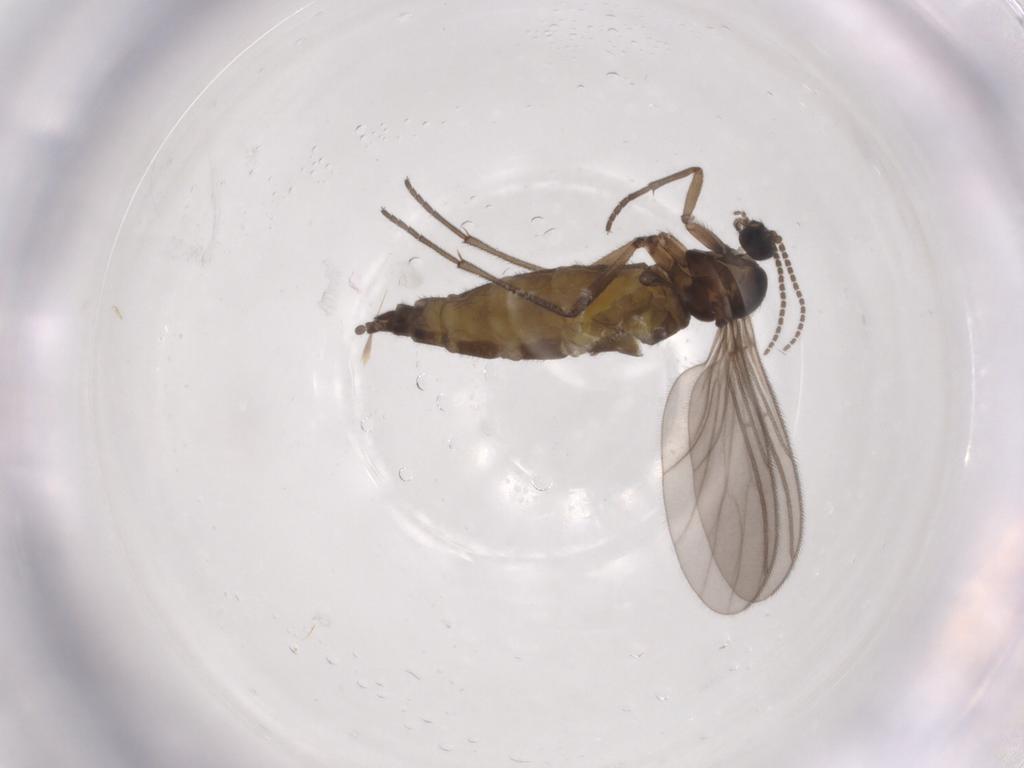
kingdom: Animalia
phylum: Arthropoda
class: Insecta
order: Diptera
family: Sciaridae
